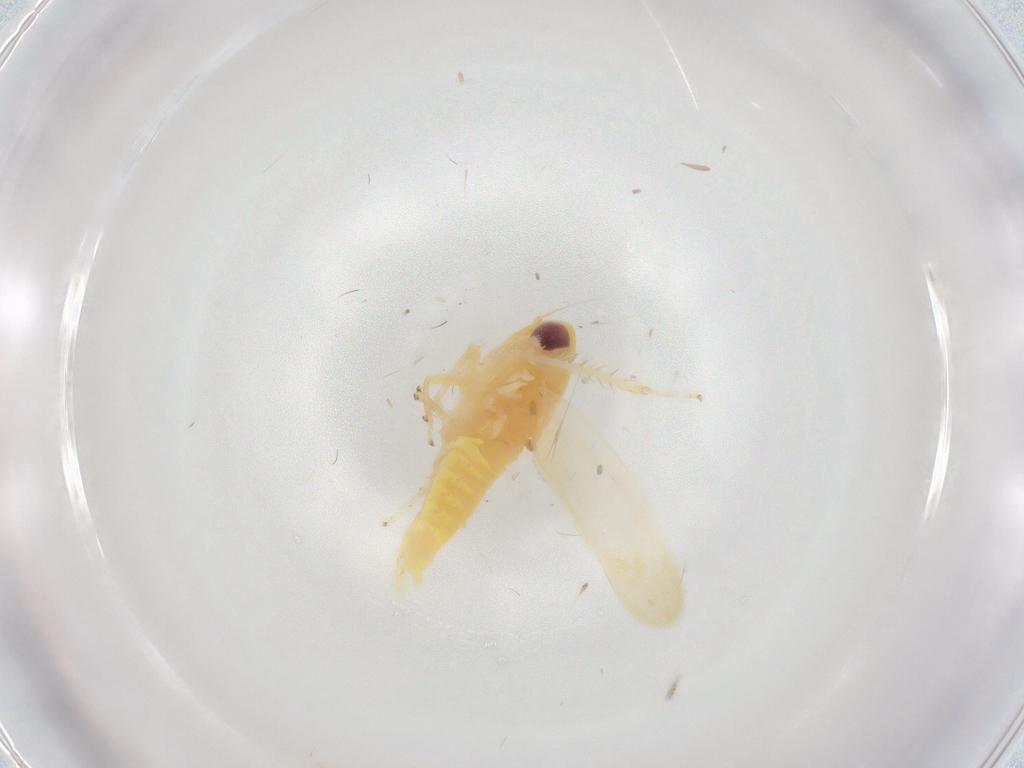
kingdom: Animalia
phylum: Arthropoda
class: Insecta
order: Hemiptera
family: Cicadellidae
